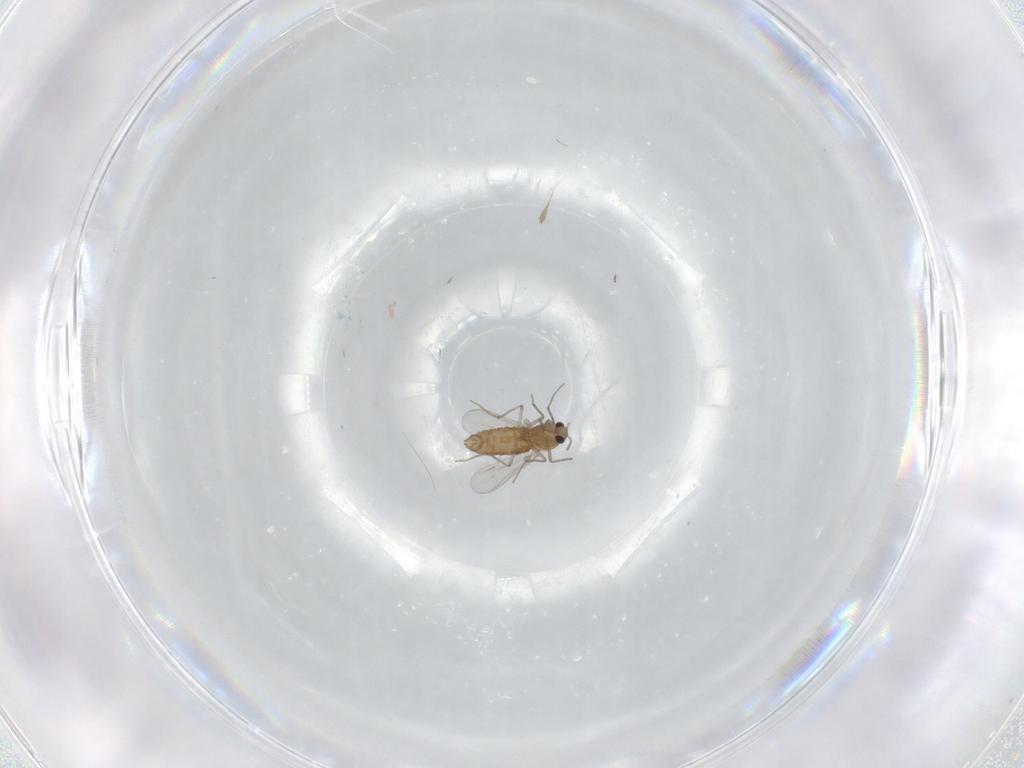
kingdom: Animalia
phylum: Arthropoda
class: Insecta
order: Diptera
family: Chironomidae
